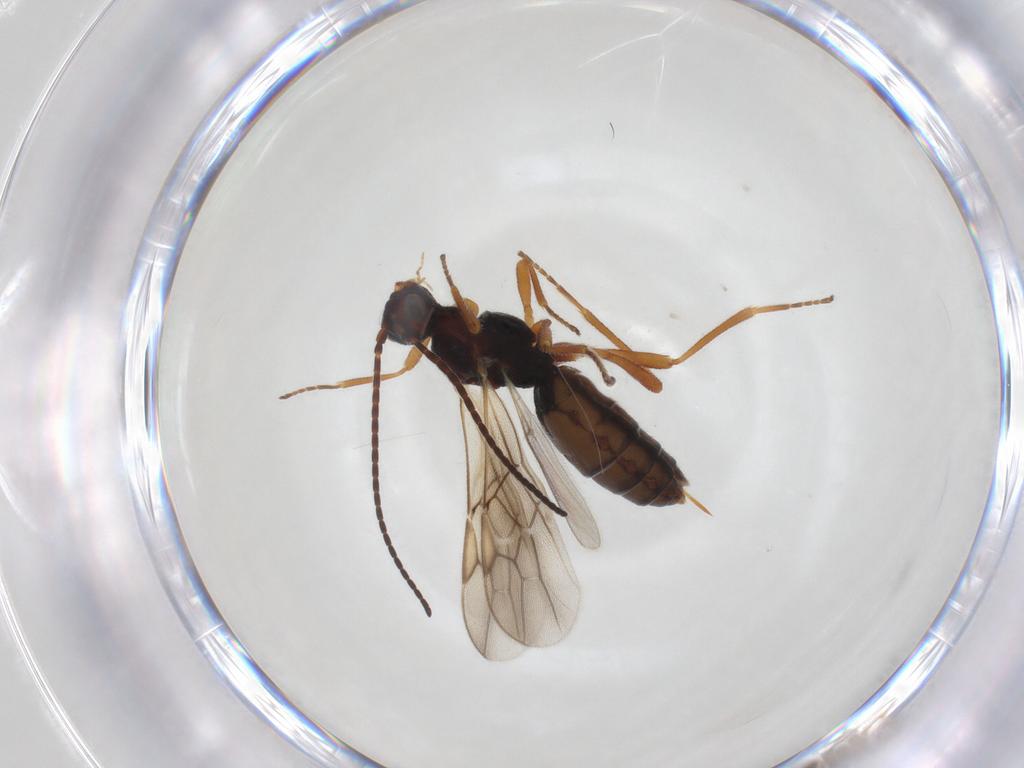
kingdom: Animalia
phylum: Arthropoda
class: Insecta
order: Hymenoptera
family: Braconidae
